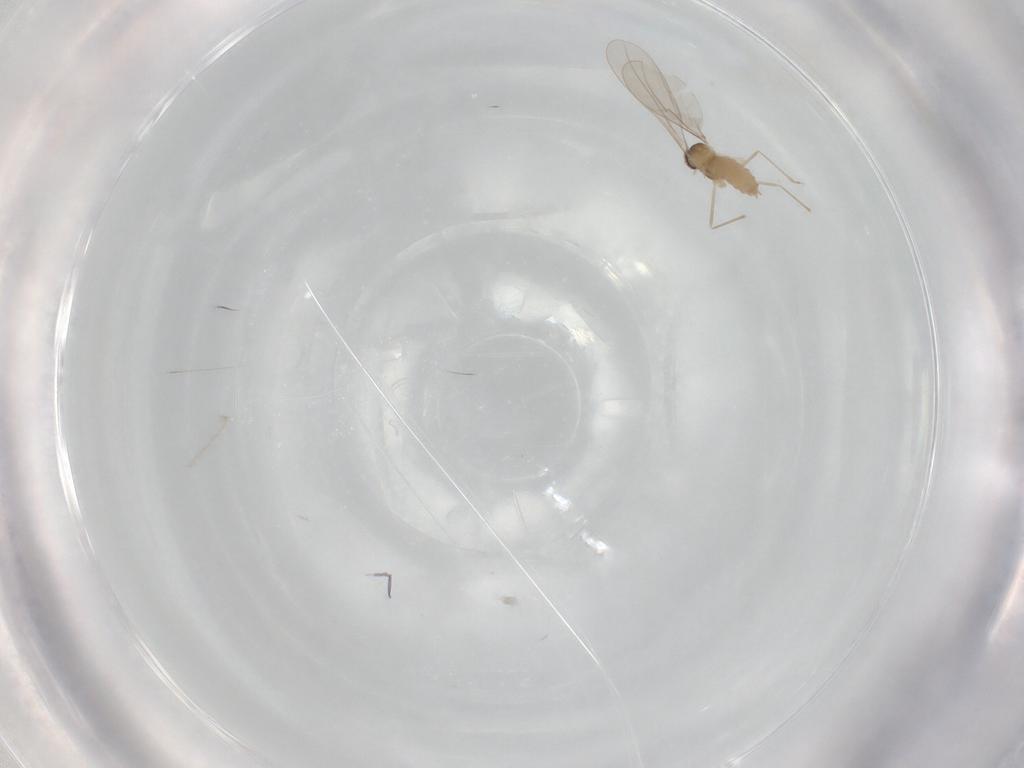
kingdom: Animalia
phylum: Arthropoda
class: Insecta
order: Diptera
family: Cecidomyiidae
